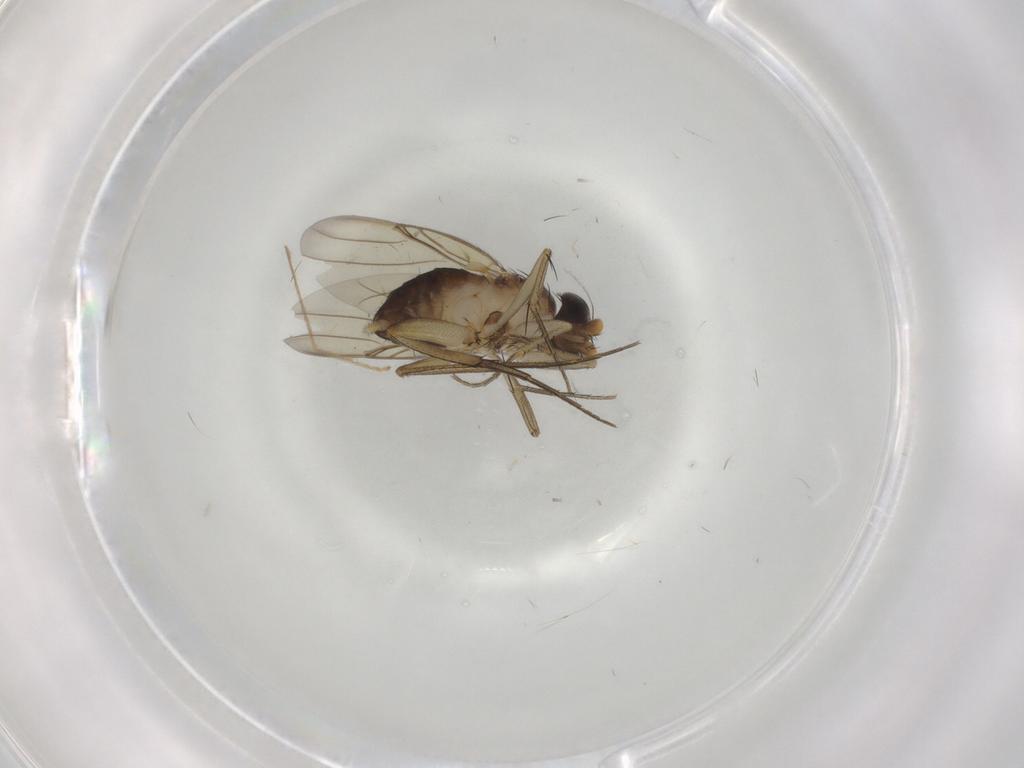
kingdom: Animalia
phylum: Arthropoda
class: Insecta
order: Diptera
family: Phoridae
